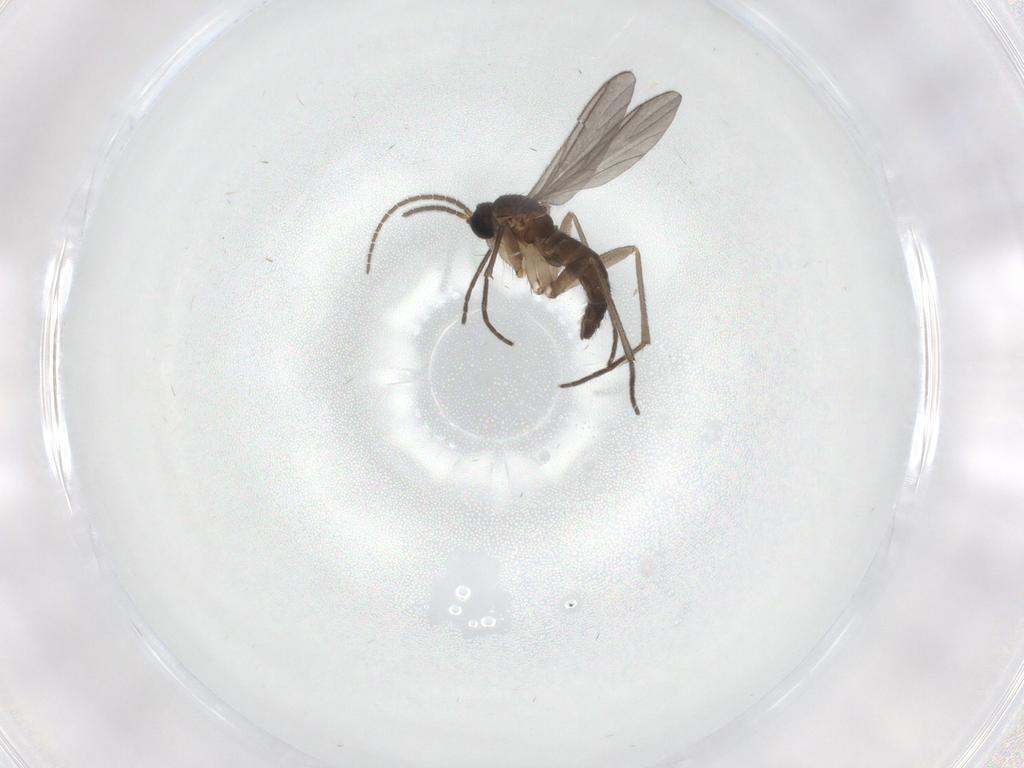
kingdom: Animalia
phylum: Arthropoda
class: Insecta
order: Diptera
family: Sciaridae
